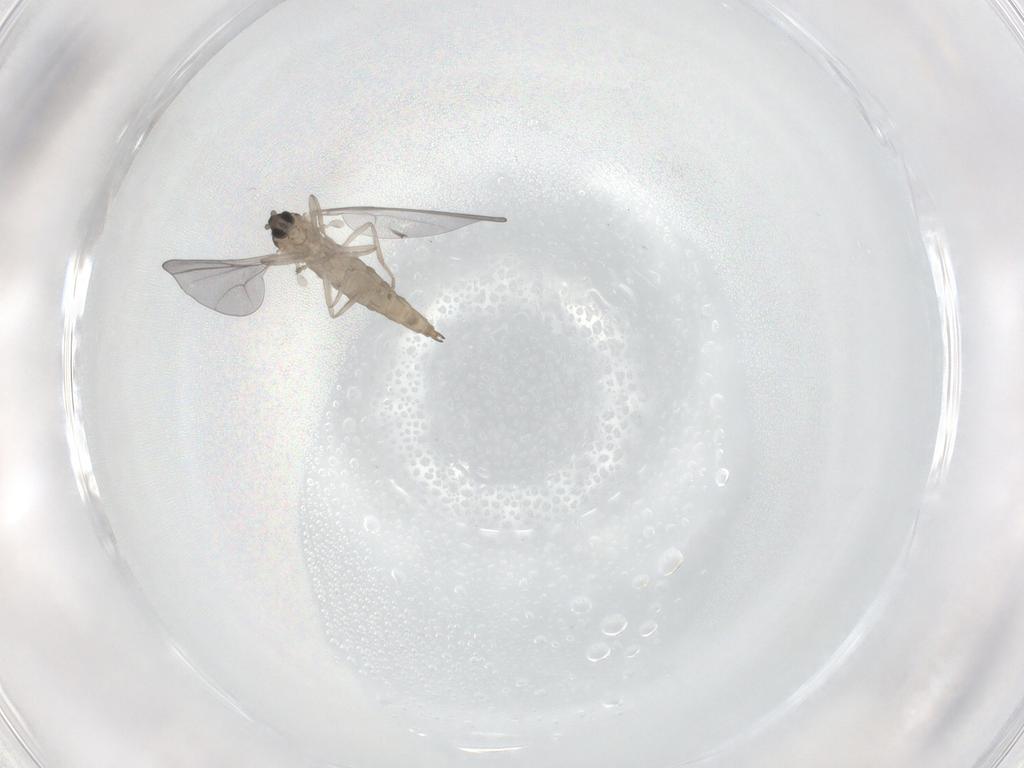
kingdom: Animalia
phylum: Arthropoda
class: Insecta
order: Diptera
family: Cecidomyiidae
